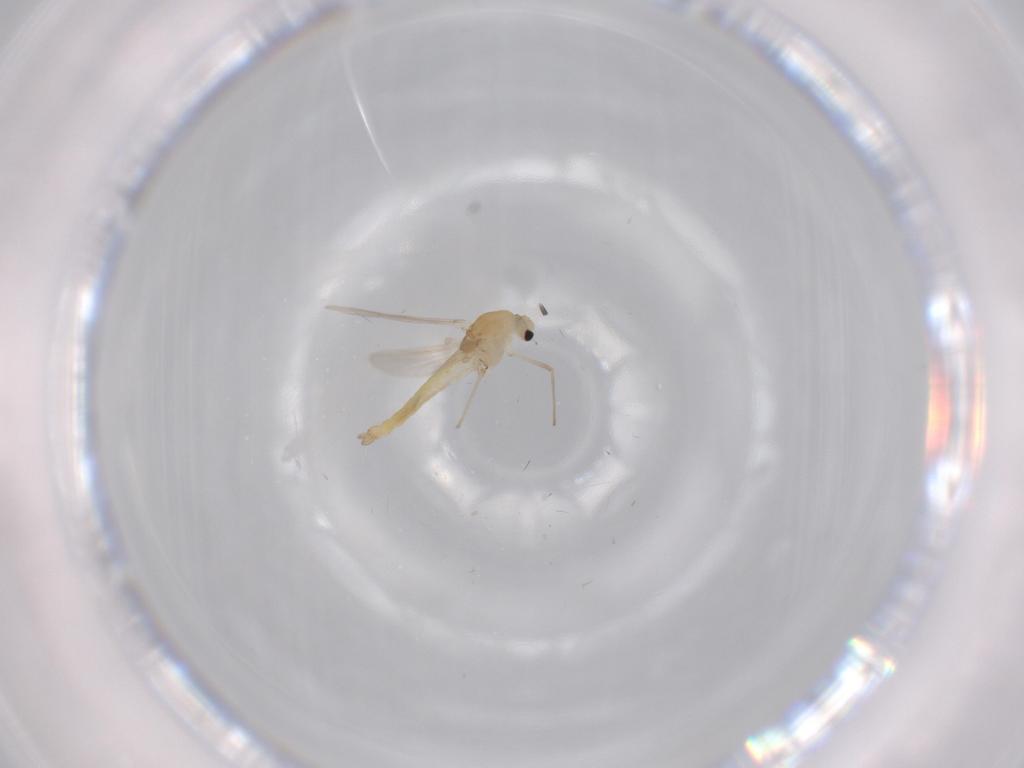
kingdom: Animalia
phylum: Arthropoda
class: Insecta
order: Diptera
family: Chironomidae
